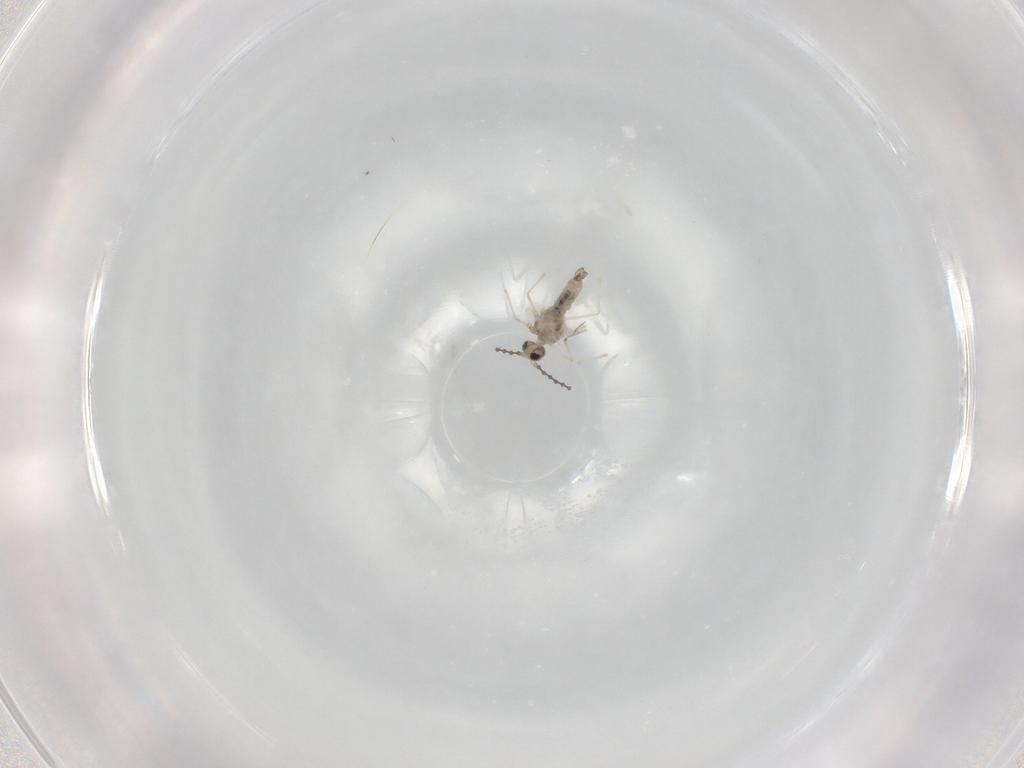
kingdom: Animalia
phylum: Arthropoda
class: Insecta
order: Diptera
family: Cecidomyiidae
